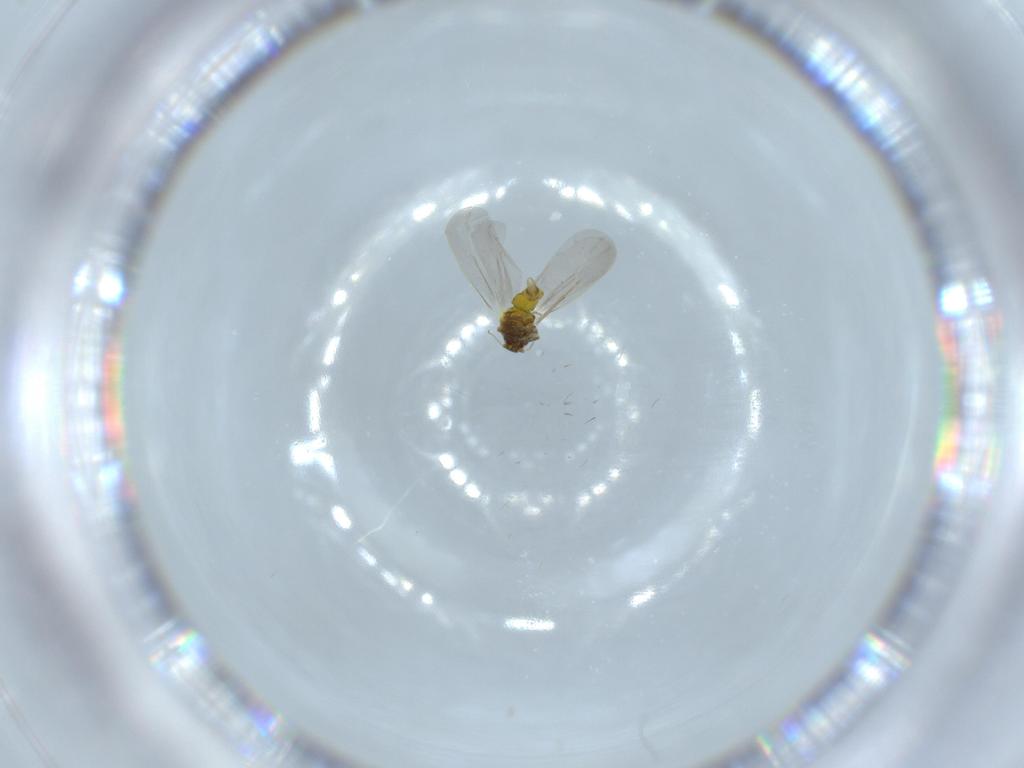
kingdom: Animalia
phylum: Arthropoda
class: Insecta
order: Hemiptera
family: Aleyrodidae
